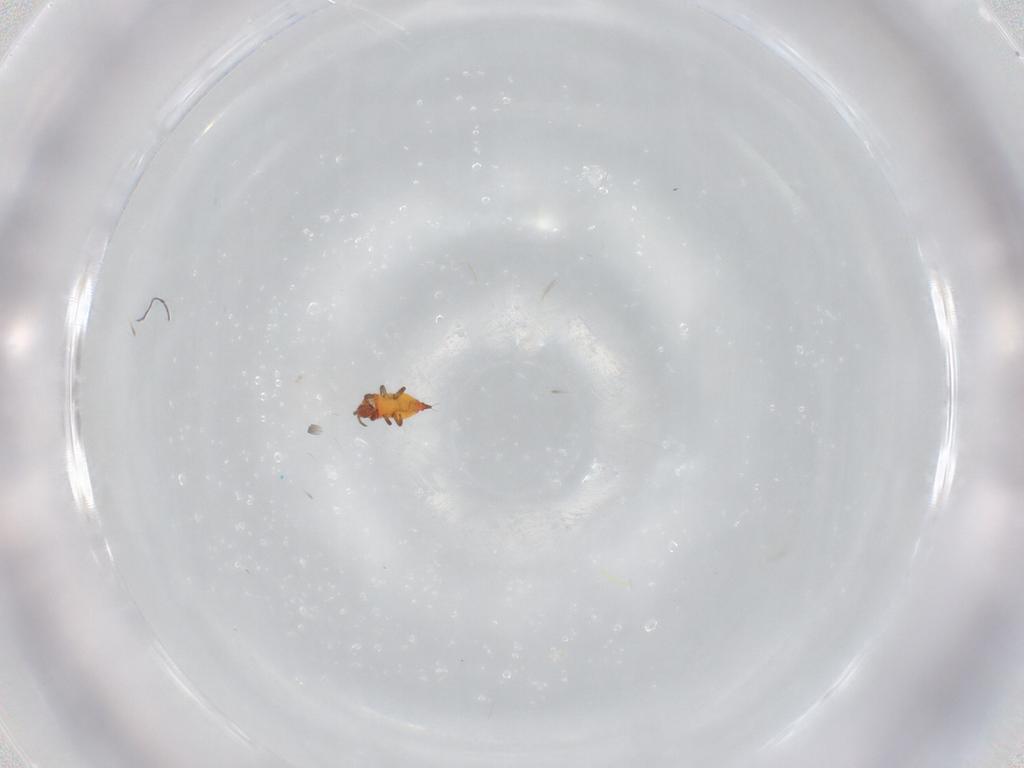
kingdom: Animalia
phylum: Arthropoda
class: Insecta
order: Thysanoptera
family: Phlaeothripidae
